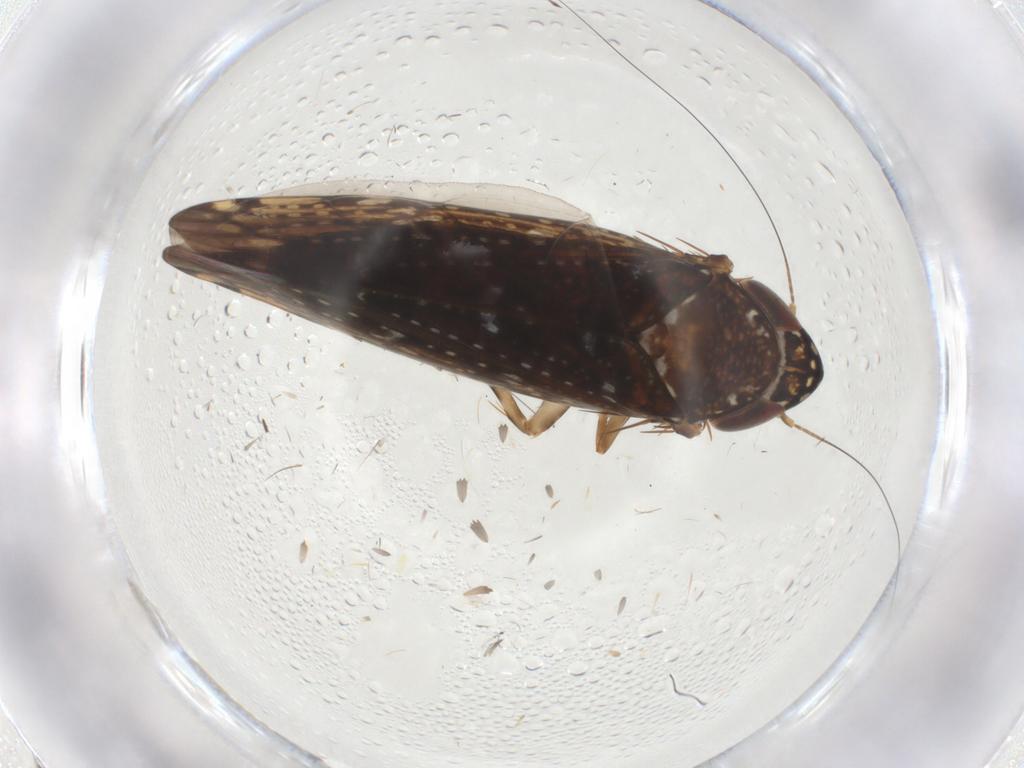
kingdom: Animalia
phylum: Arthropoda
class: Insecta
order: Hemiptera
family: Cicadellidae
